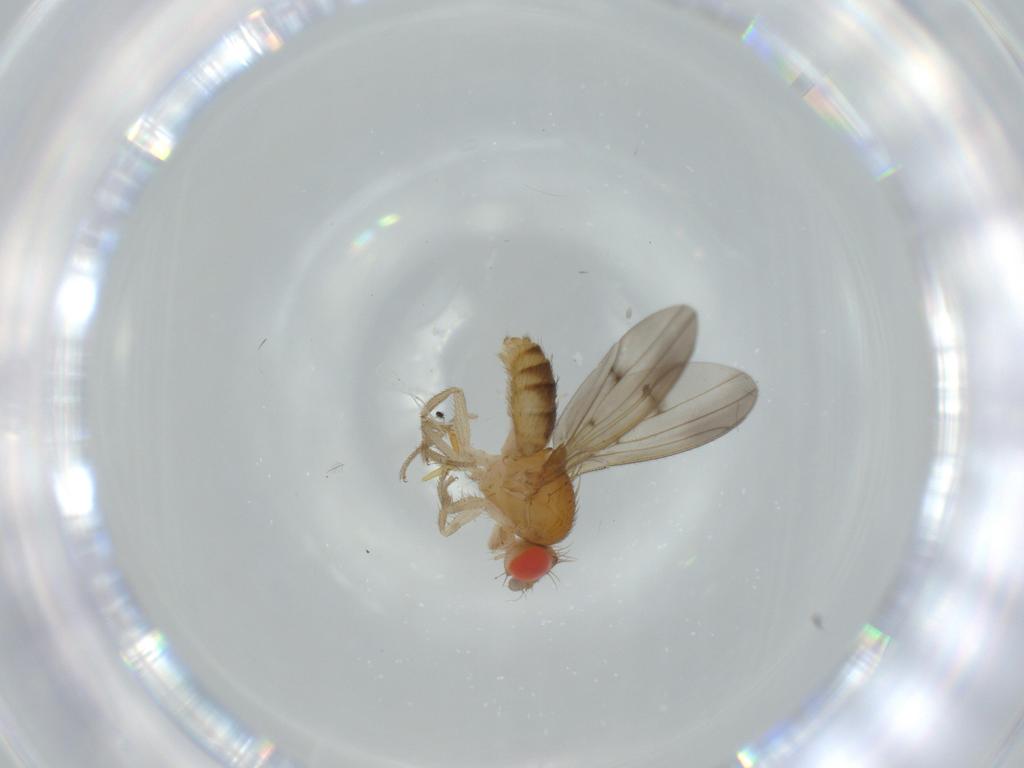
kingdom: Animalia
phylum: Arthropoda
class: Insecta
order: Diptera
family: Drosophilidae
